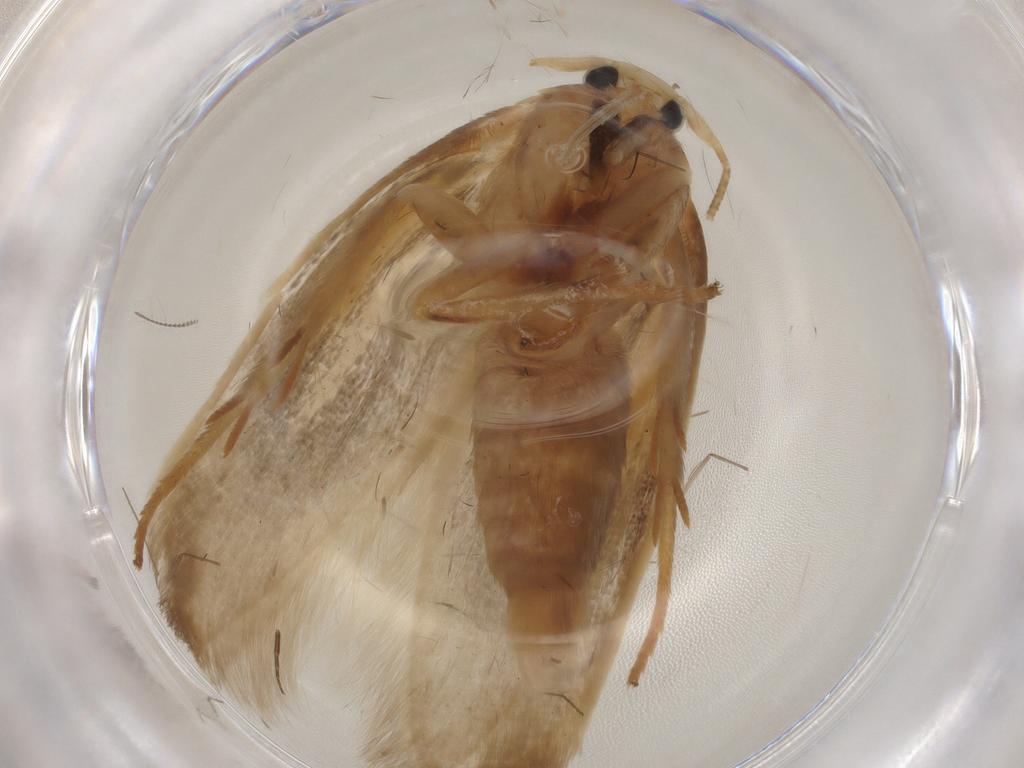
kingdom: Animalia
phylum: Arthropoda
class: Insecta
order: Lepidoptera
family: Geometridae
